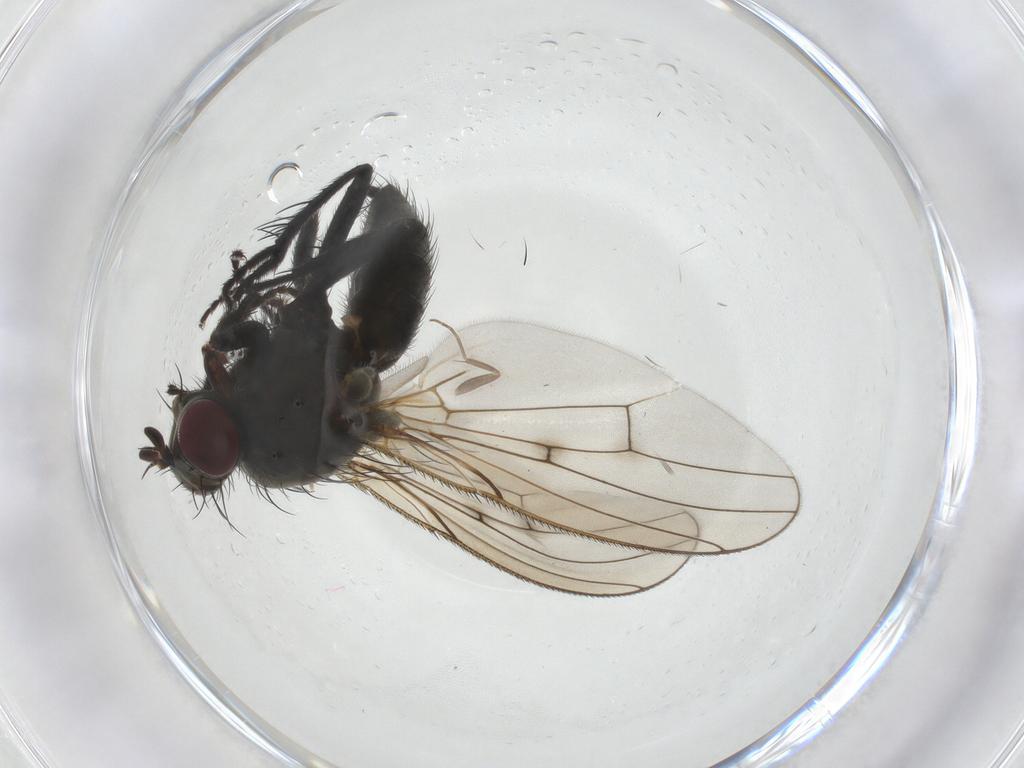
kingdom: Animalia
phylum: Arthropoda
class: Insecta
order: Diptera
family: Muscidae
